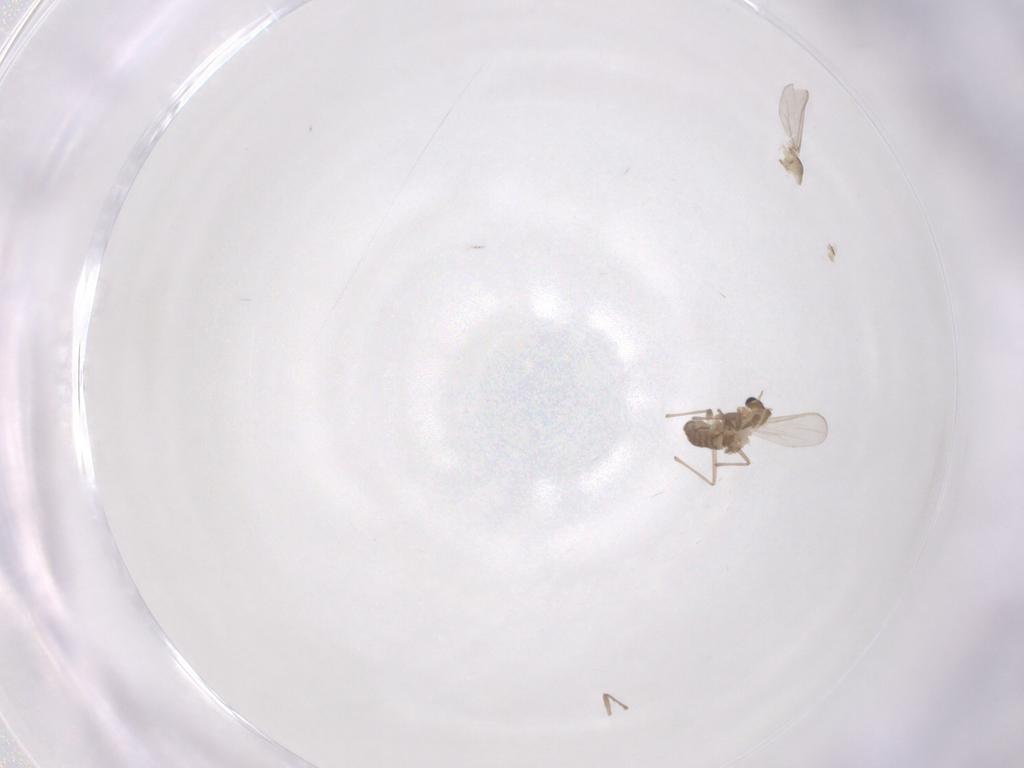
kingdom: Animalia
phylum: Arthropoda
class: Insecta
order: Diptera
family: Chironomidae
